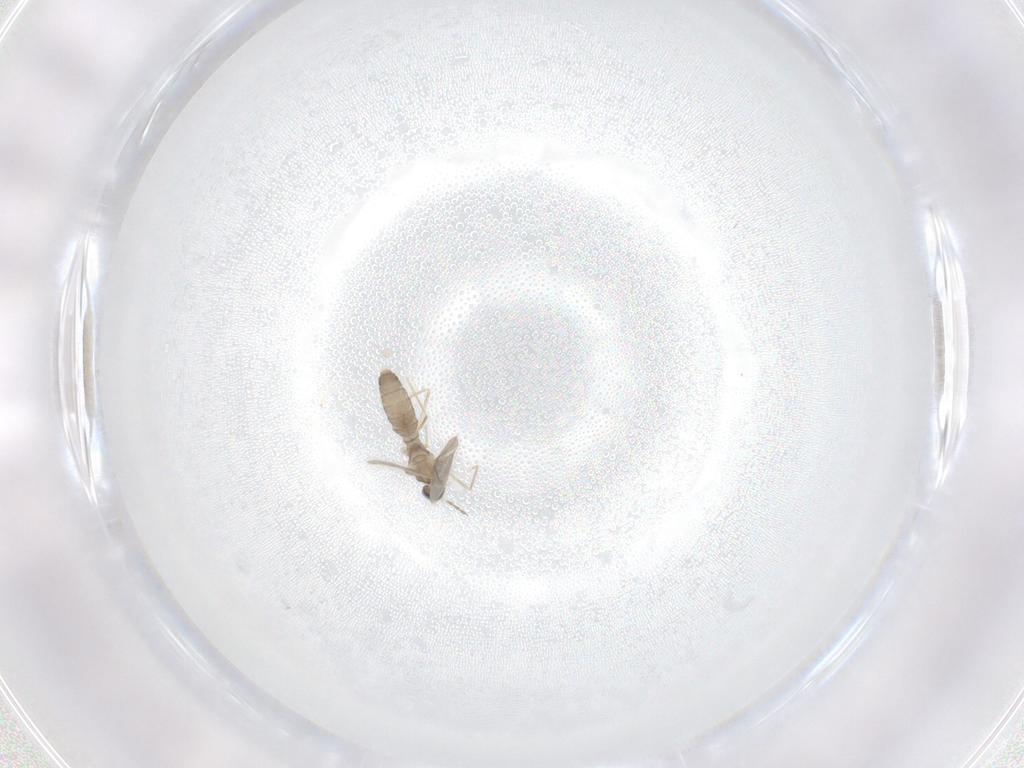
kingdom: Animalia
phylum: Arthropoda
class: Insecta
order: Diptera
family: Cecidomyiidae
